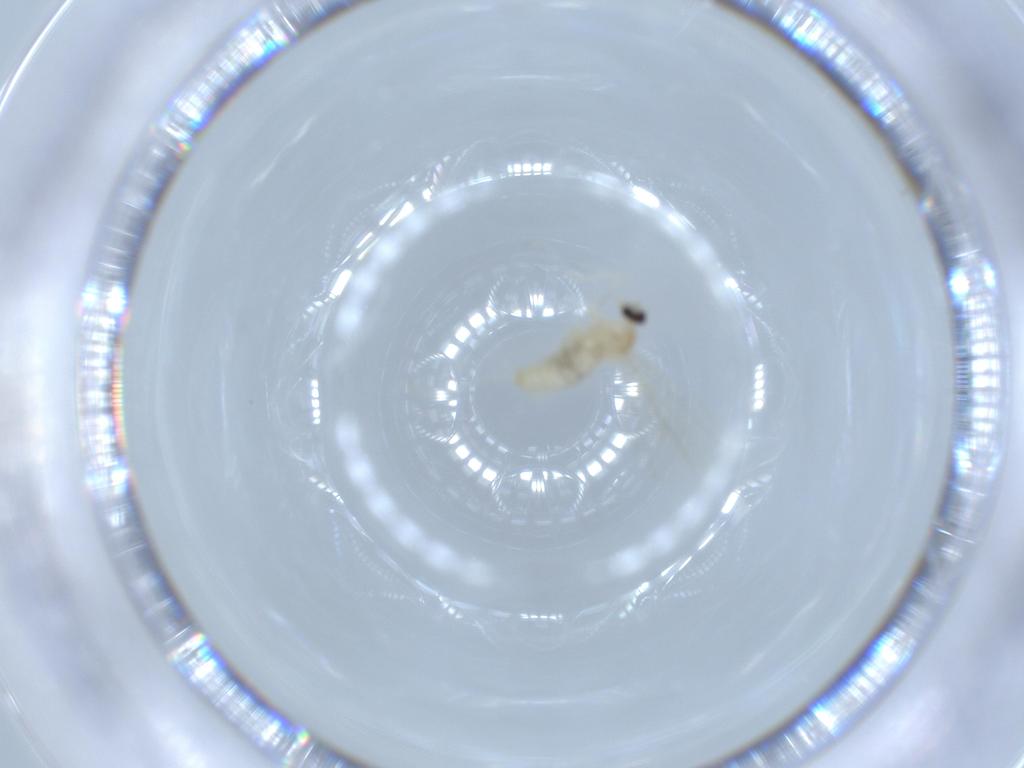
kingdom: Animalia
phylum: Arthropoda
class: Insecta
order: Diptera
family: Cecidomyiidae
